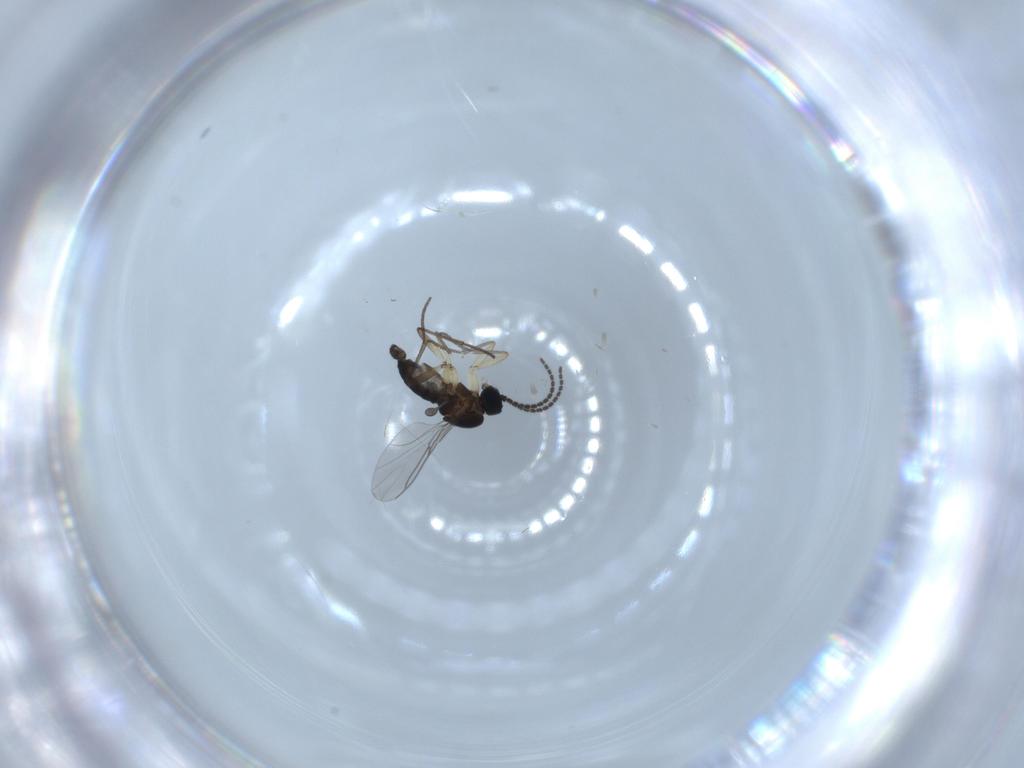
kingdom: Animalia
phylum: Arthropoda
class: Insecta
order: Diptera
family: Sciaridae
